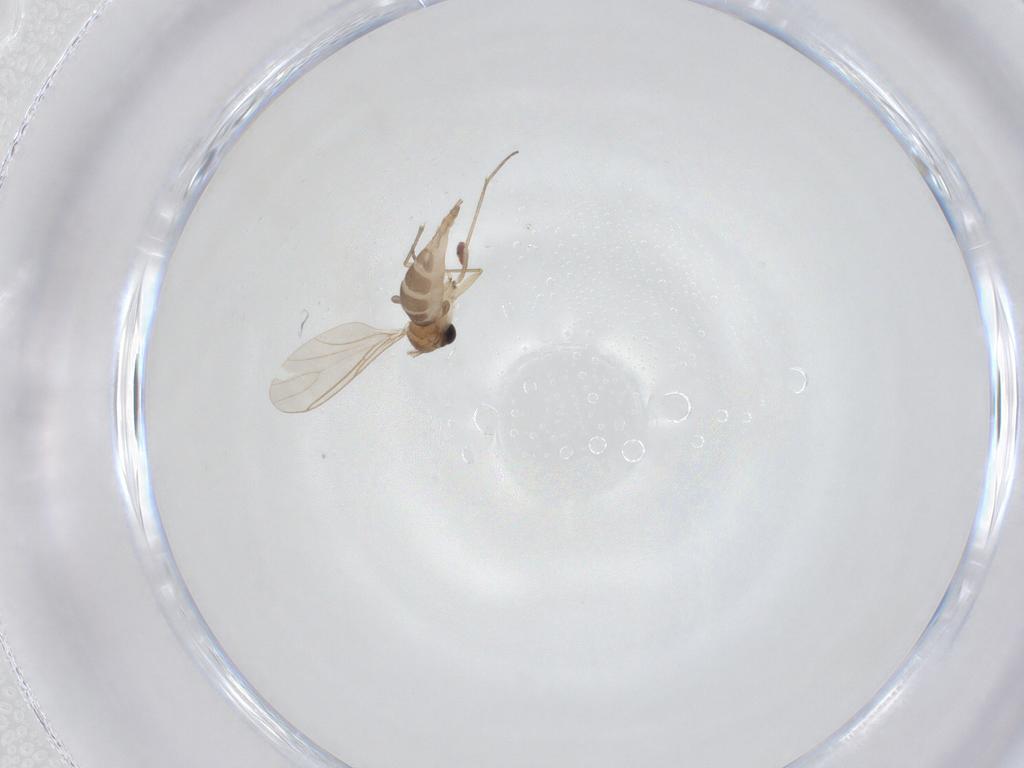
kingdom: Animalia
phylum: Arthropoda
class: Insecta
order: Diptera
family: Sciaridae
